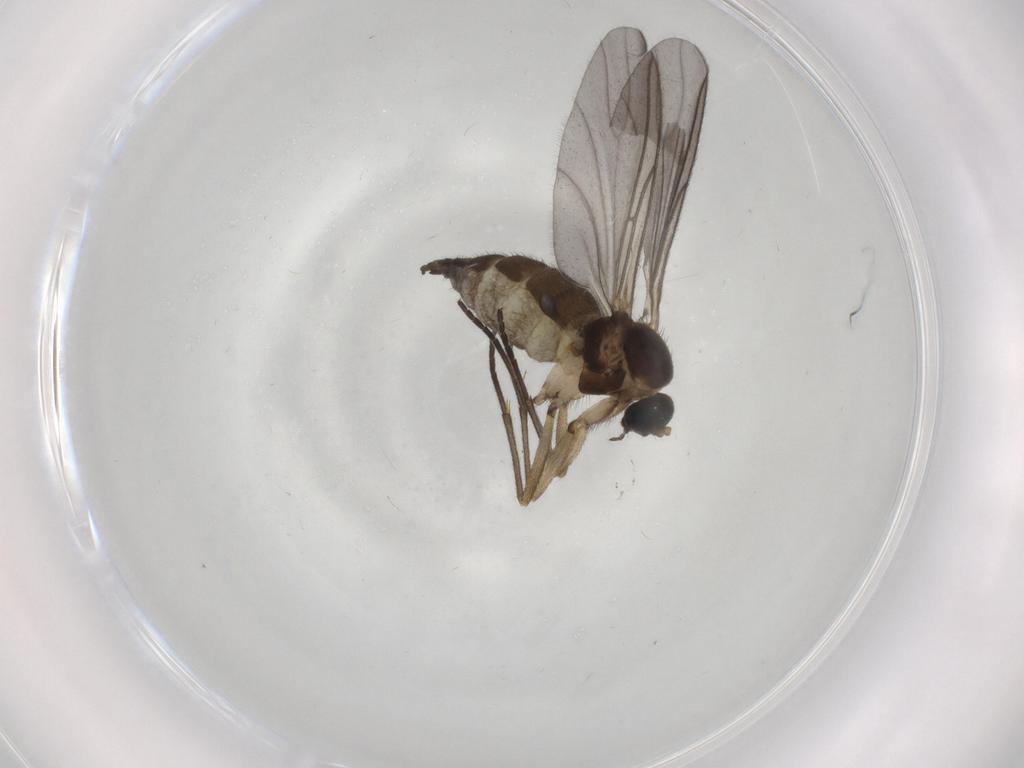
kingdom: Animalia
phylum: Arthropoda
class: Insecta
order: Diptera
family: Sciaridae
